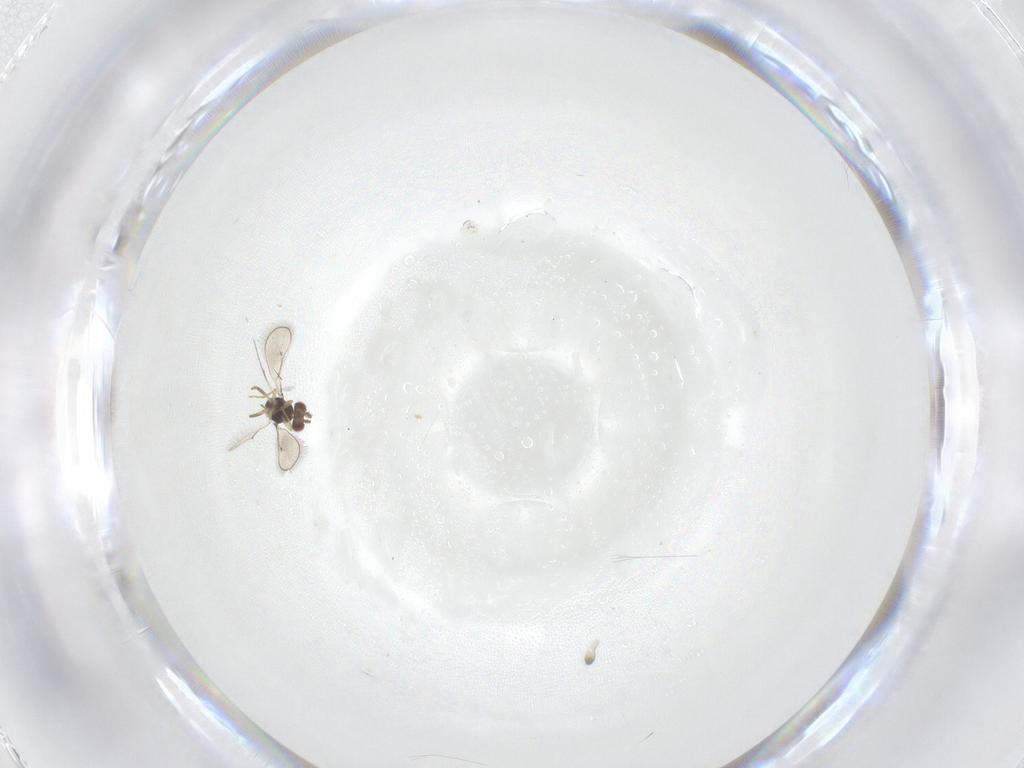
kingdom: Animalia
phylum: Arthropoda
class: Insecta
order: Hymenoptera
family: Eulophidae
